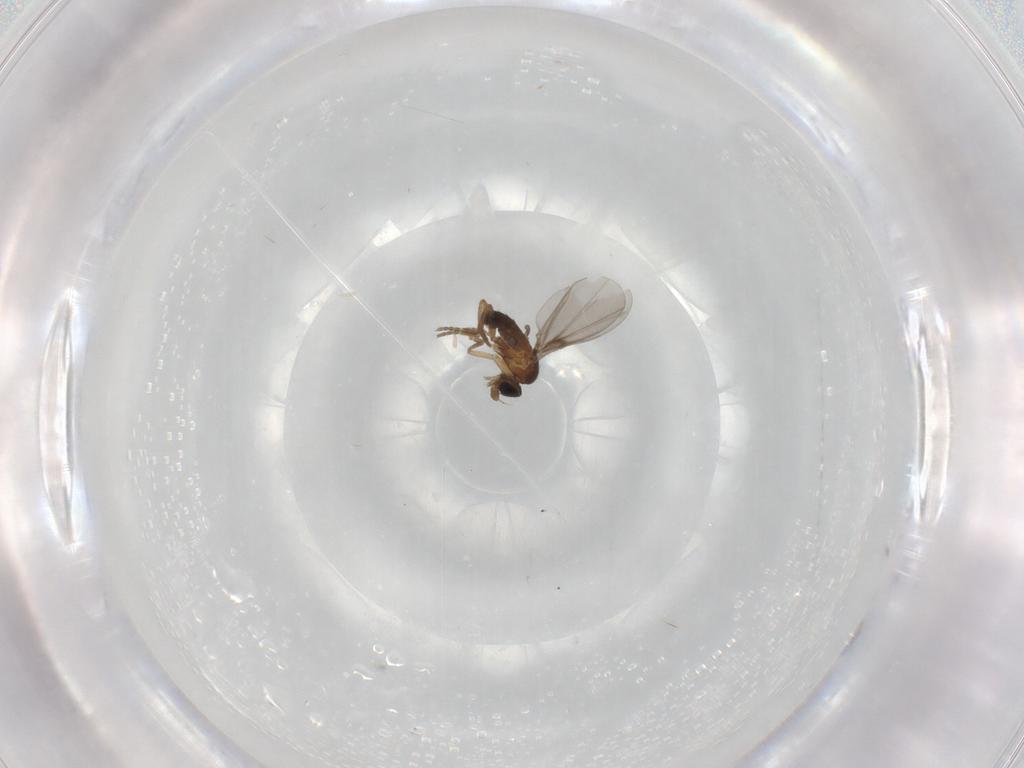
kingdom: Animalia
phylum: Arthropoda
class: Insecta
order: Diptera
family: Phoridae
